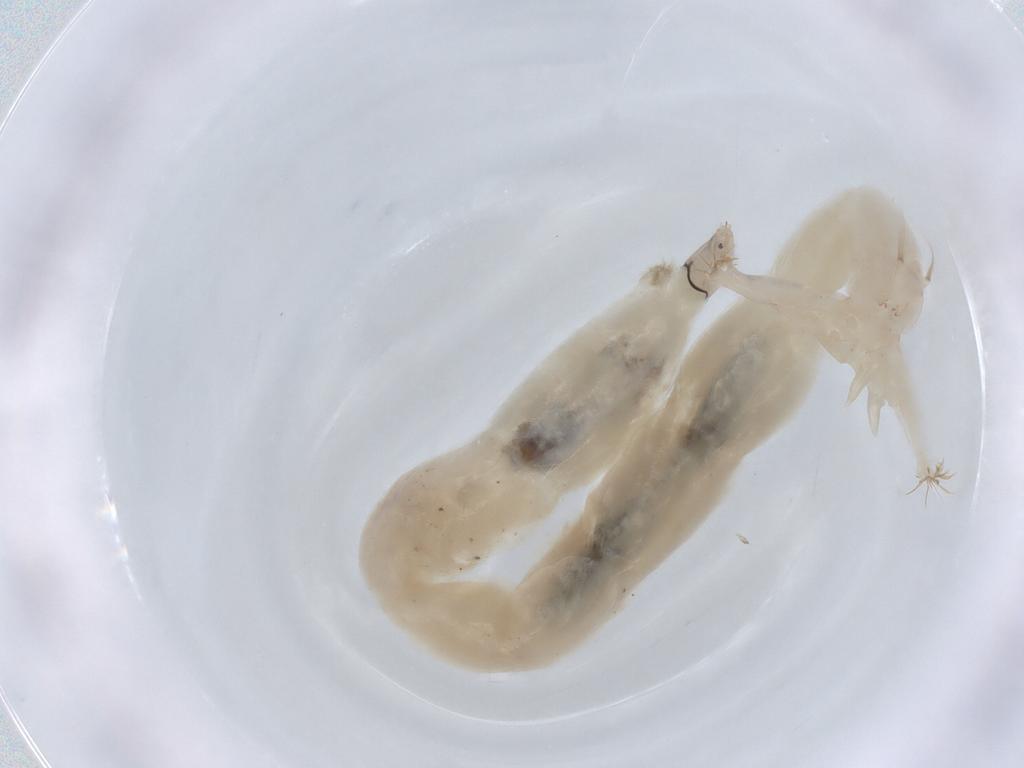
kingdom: Animalia
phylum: Arthropoda
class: Insecta
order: Diptera
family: Chironomidae
